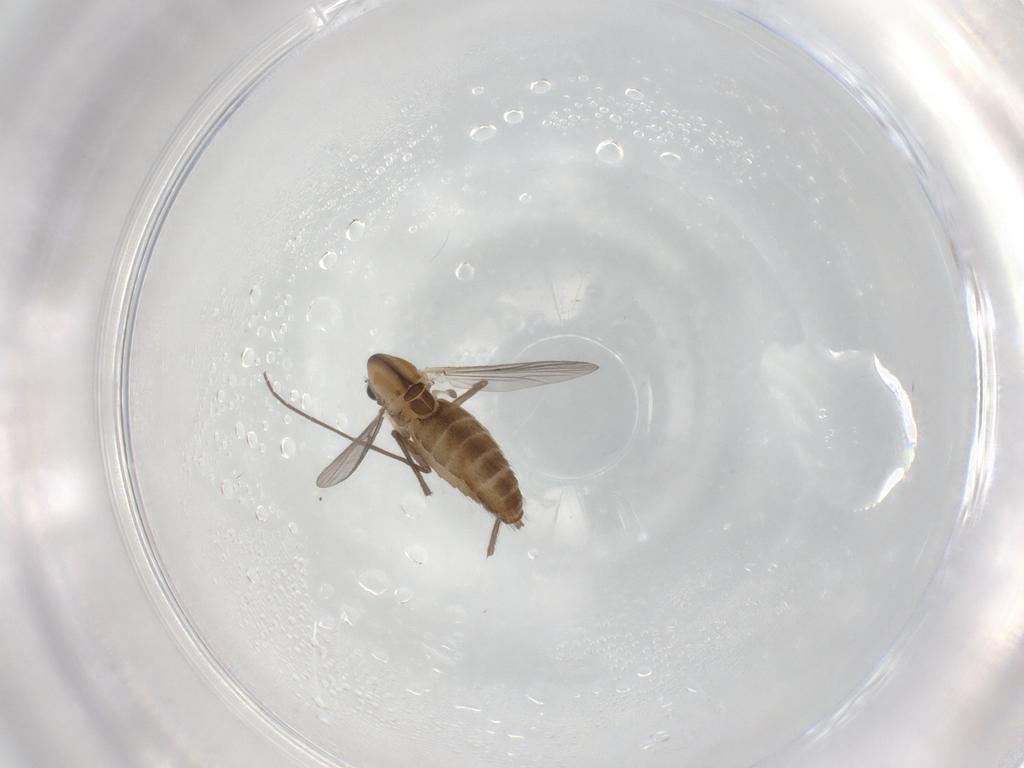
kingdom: Animalia
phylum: Arthropoda
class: Insecta
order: Diptera
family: Chironomidae
